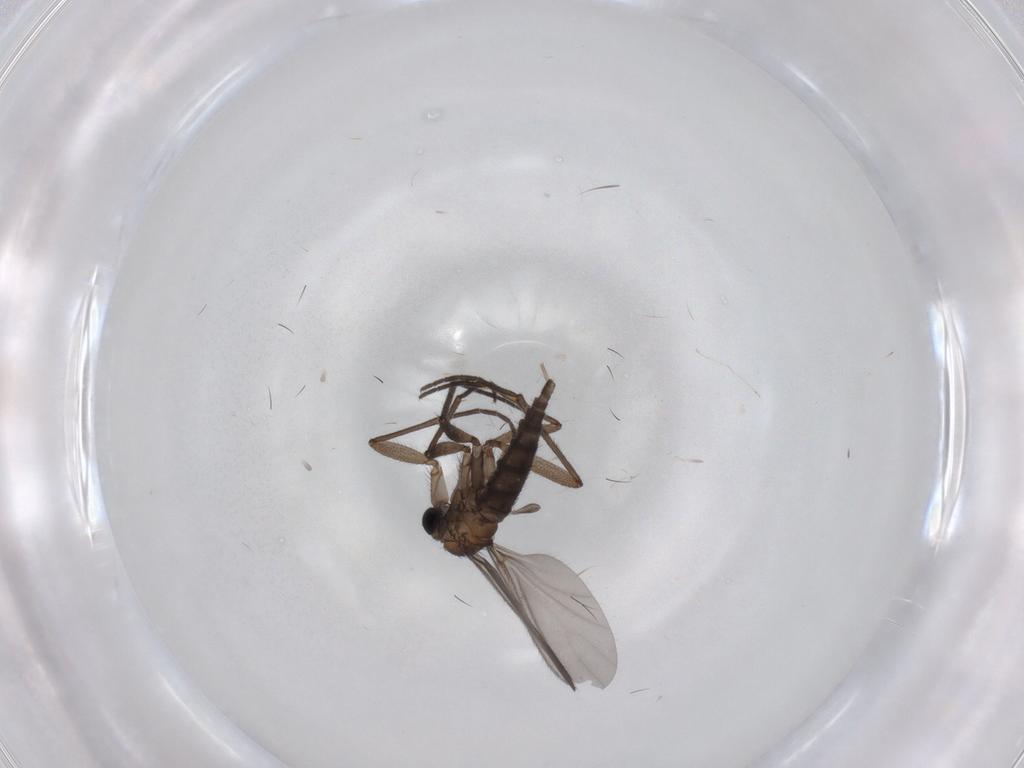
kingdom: Animalia
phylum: Arthropoda
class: Insecta
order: Diptera
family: Sciaridae
